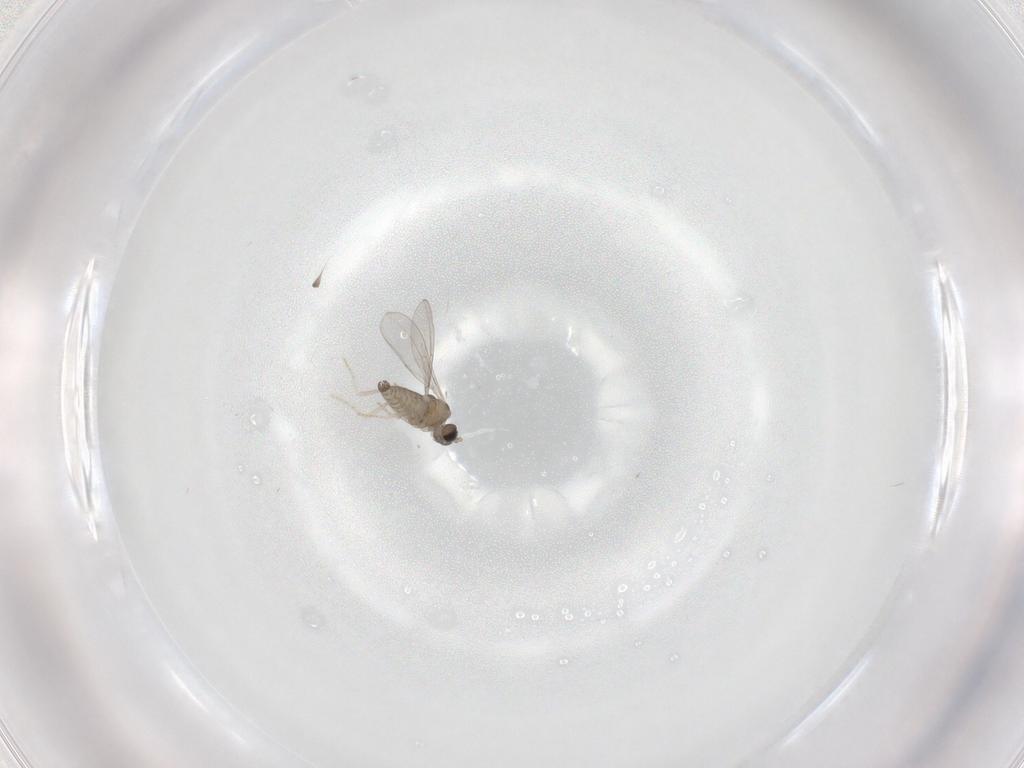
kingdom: Animalia
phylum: Arthropoda
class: Insecta
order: Diptera
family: Cecidomyiidae
